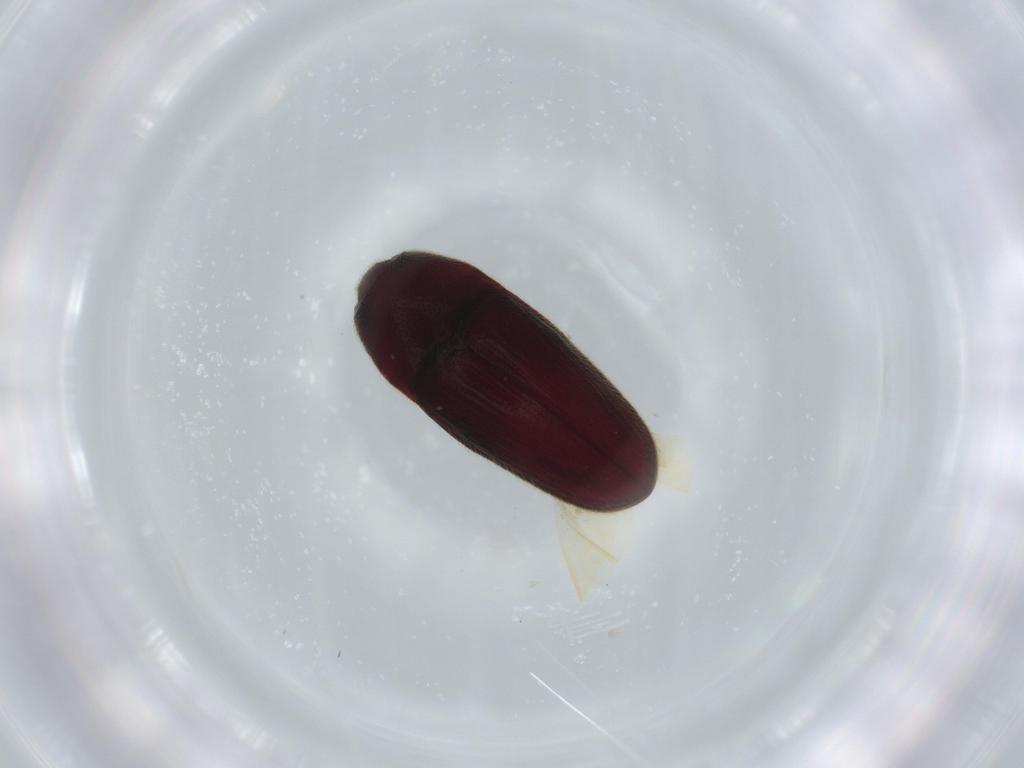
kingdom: Animalia
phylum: Arthropoda
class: Insecta
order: Coleoptera
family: Throscidae
